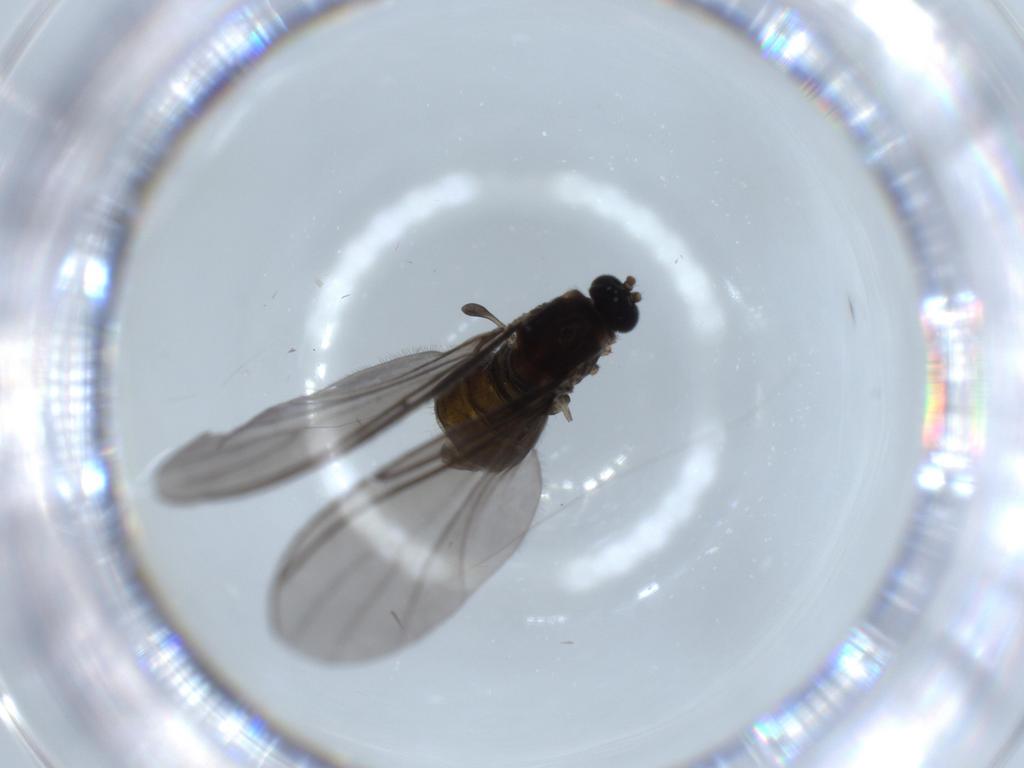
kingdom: Animalia
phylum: Arthropoda
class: Insecta
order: Diptera
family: Sciaridae
